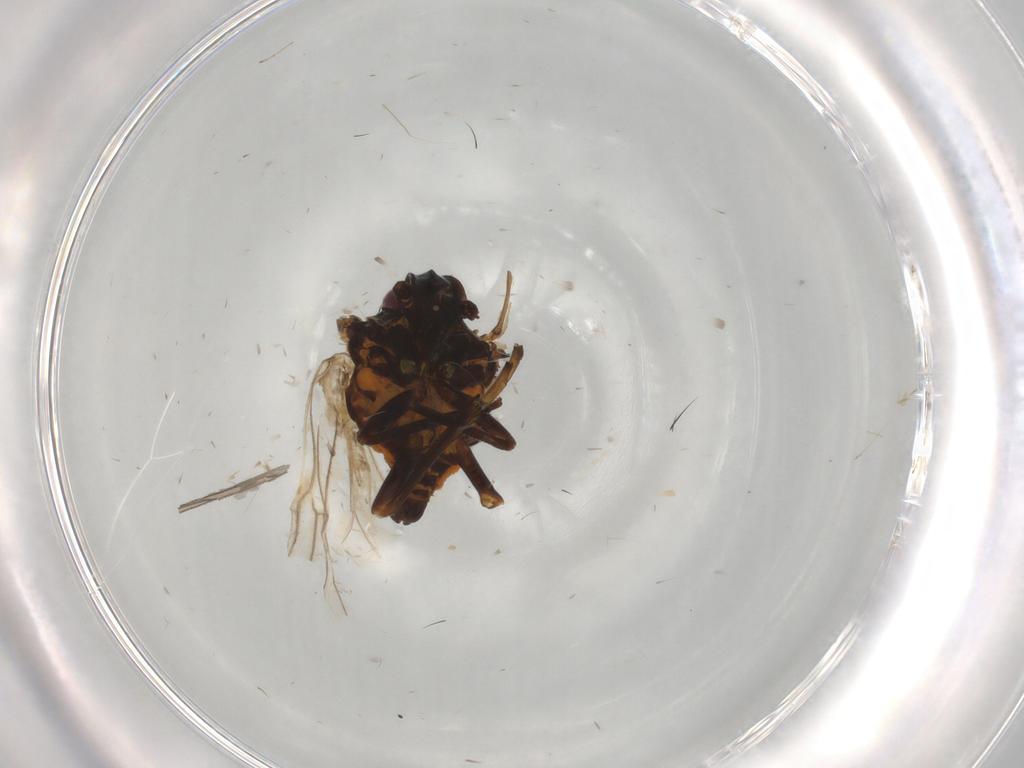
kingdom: Animalia
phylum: Arthropoda
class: Insecta
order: Hemiptera
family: Meenoplidae
